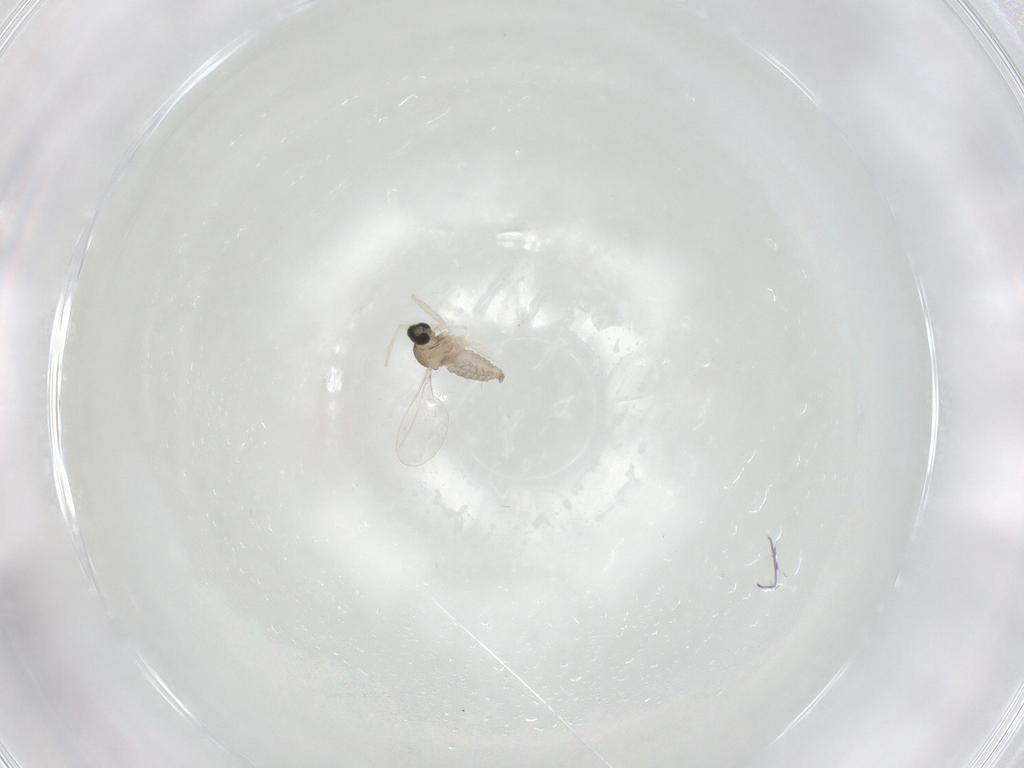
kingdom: Animalia
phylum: Arthropoda
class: Insecta
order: Diptera
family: Cecidomyiidae
